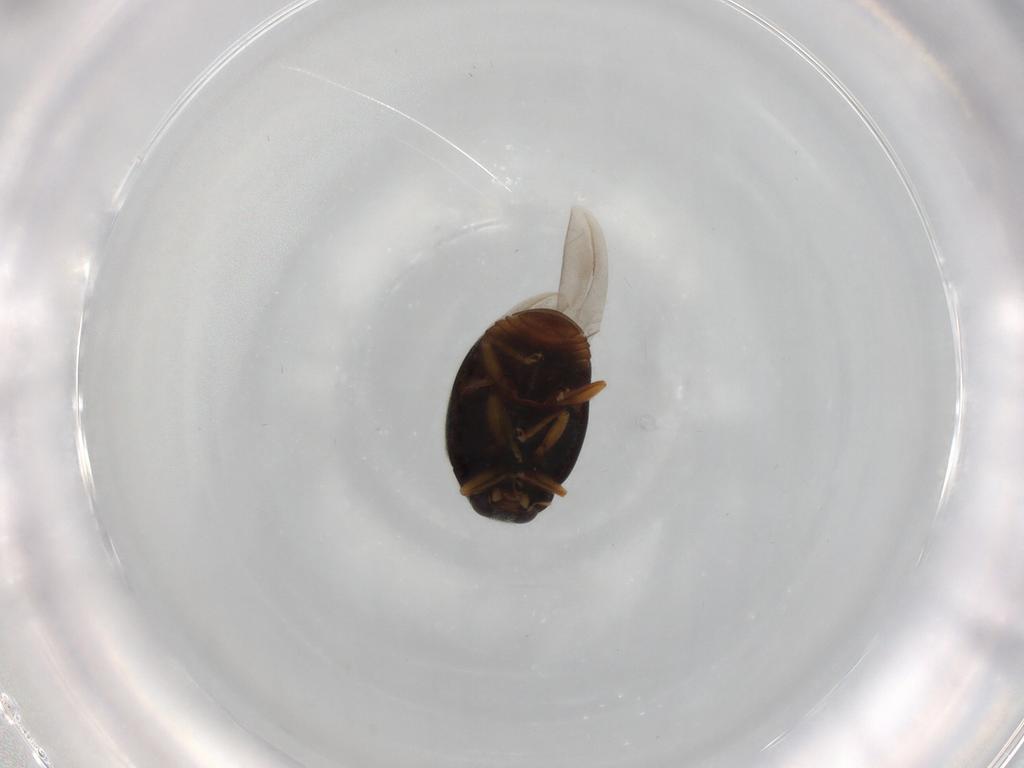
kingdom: Animalia
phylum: Arthropoda
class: Insecta
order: Coleoptera
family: Coccinellidae
